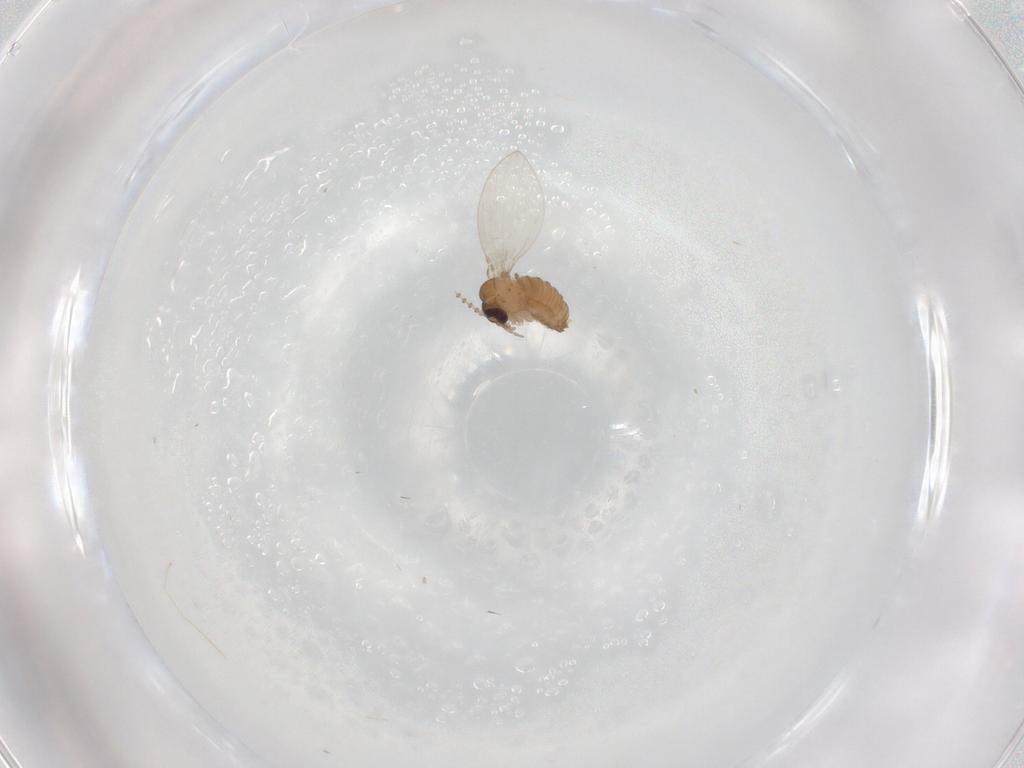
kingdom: Animalia
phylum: Arthropoda
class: Insecta
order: Diptera
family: Psychodidae
